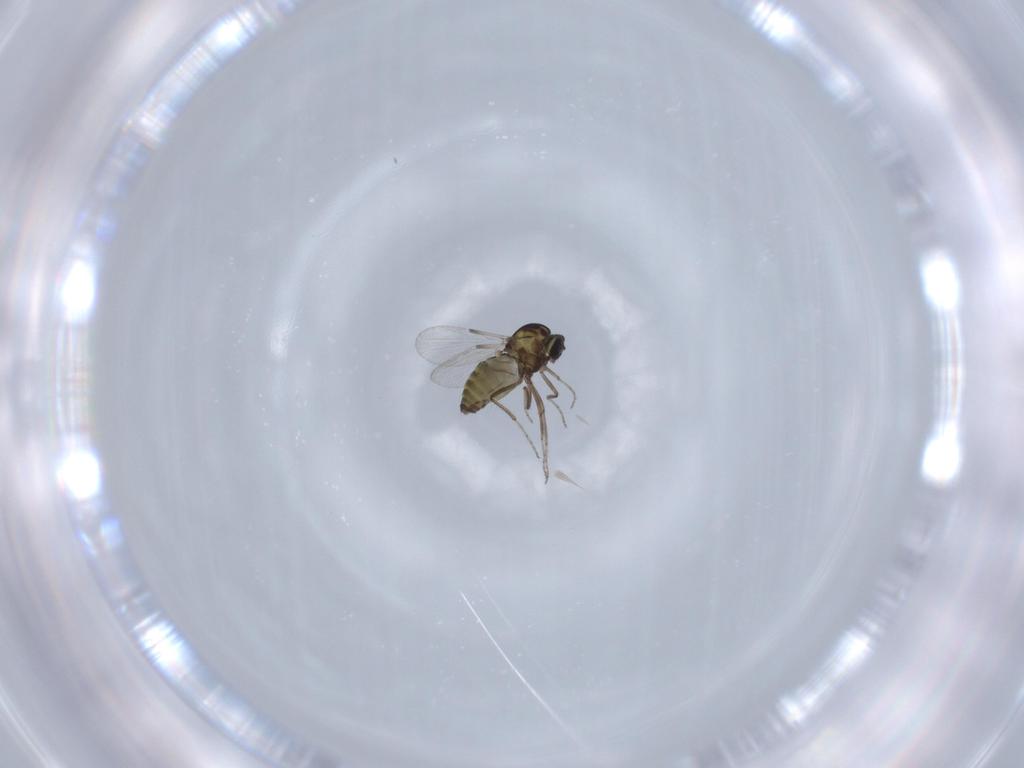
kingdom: Animalia
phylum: Arthropoda
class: Insecta
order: Diptera
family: Ceratopogonidae
